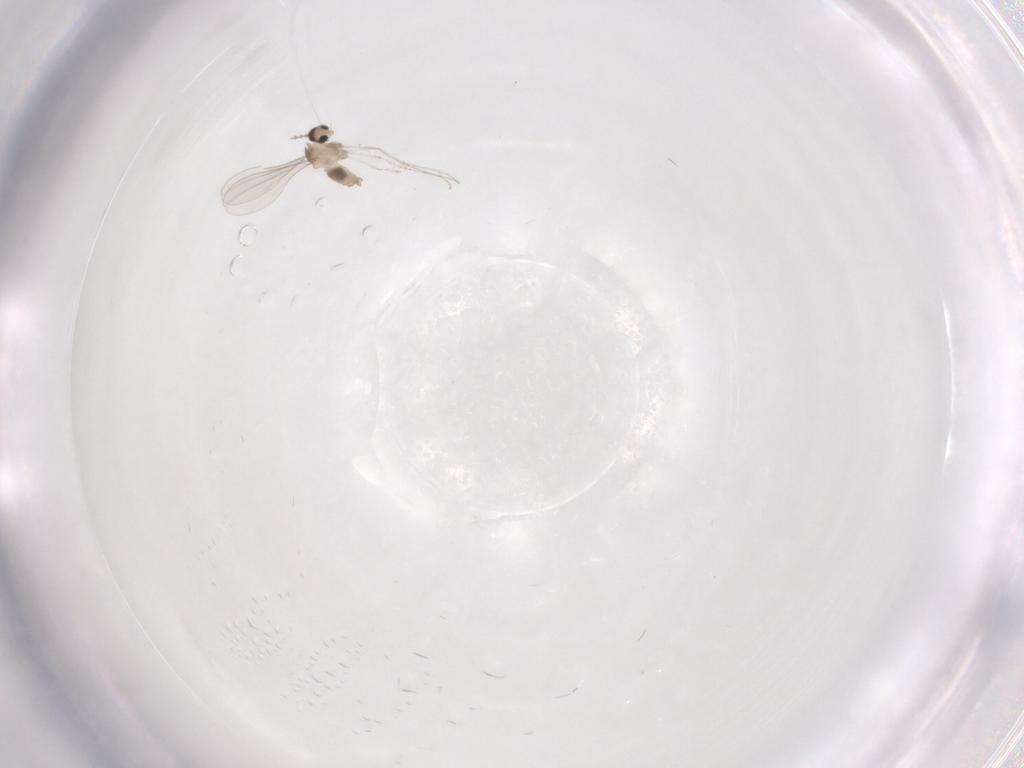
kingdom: Animalia
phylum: Arthropoda
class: Insecta
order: Diptera
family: Cecidomyiidae
